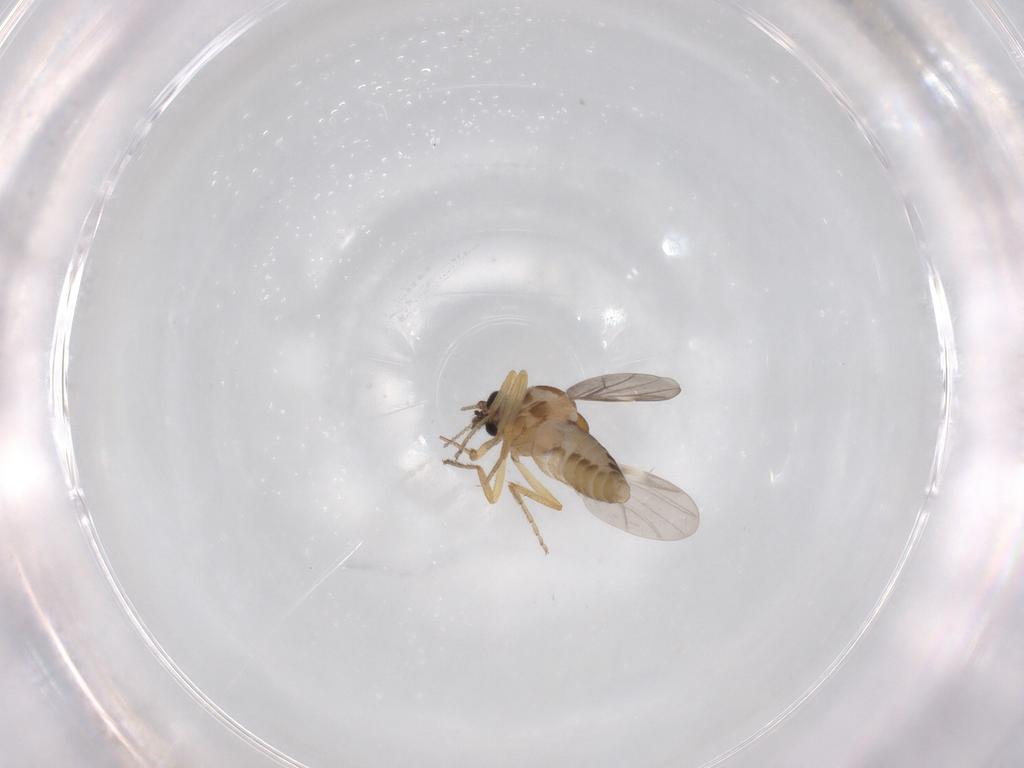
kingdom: Animalia
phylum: Arthropoda
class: Insecta
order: Diptera
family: Ceratopogonidae
